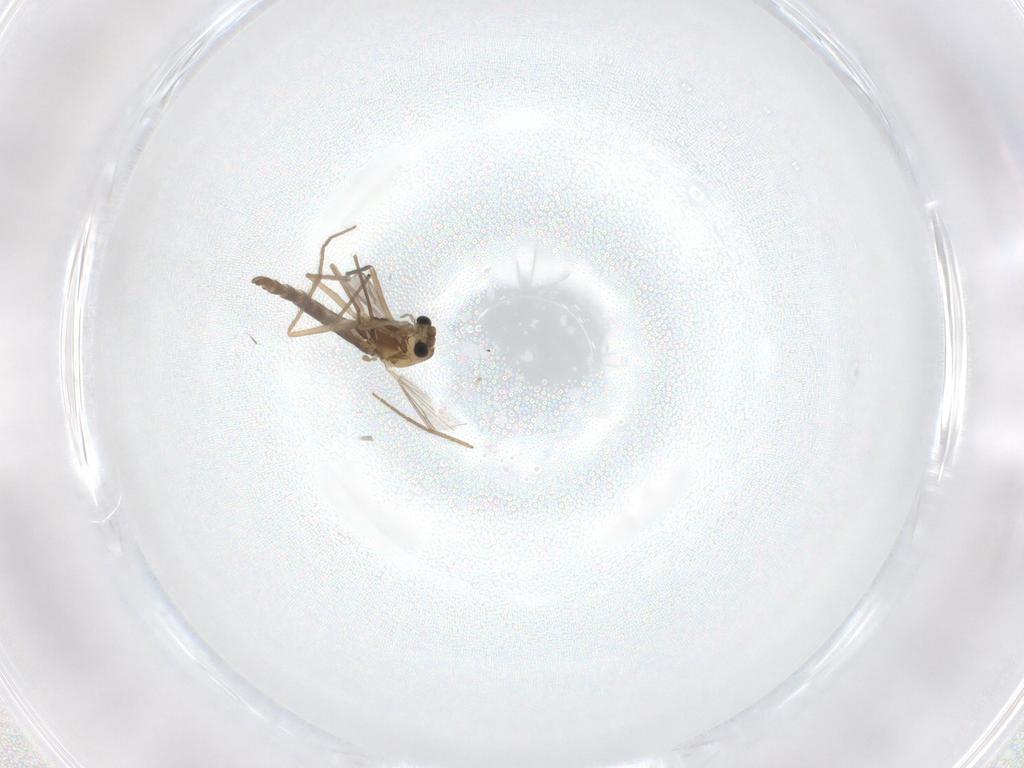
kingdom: Animalia
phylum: Arthropoda
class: Insecta
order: Diptera
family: Chironomidae
